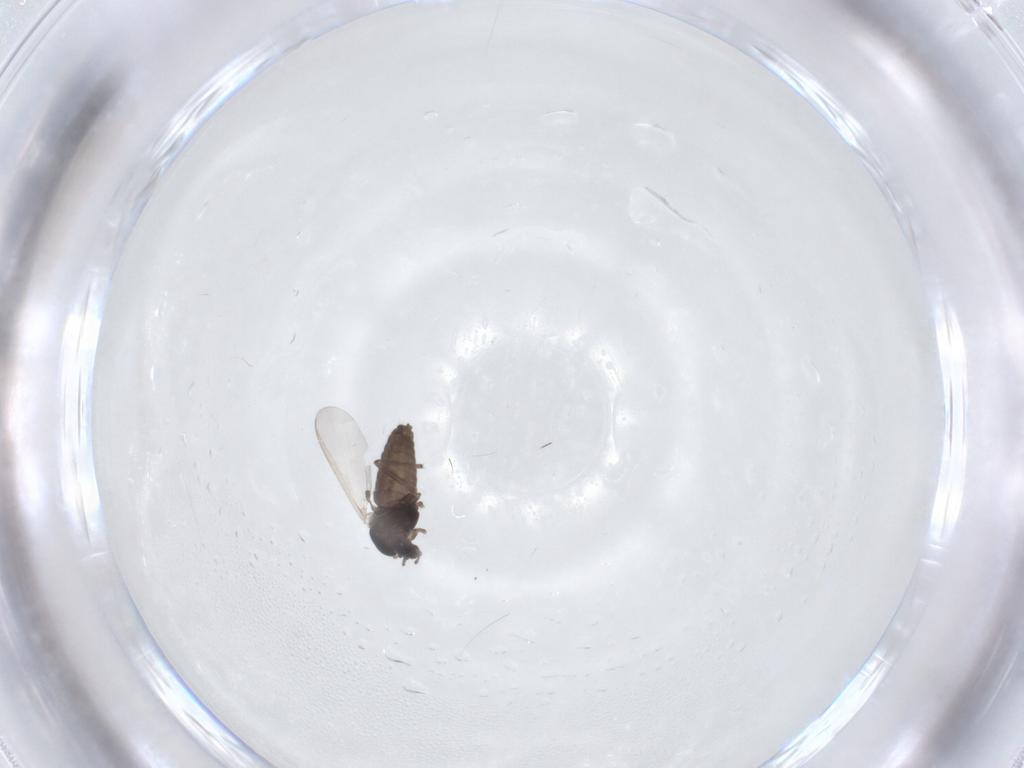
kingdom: Animalia
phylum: Arthropoda
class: Insecta
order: Diptera
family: Chironomidae
